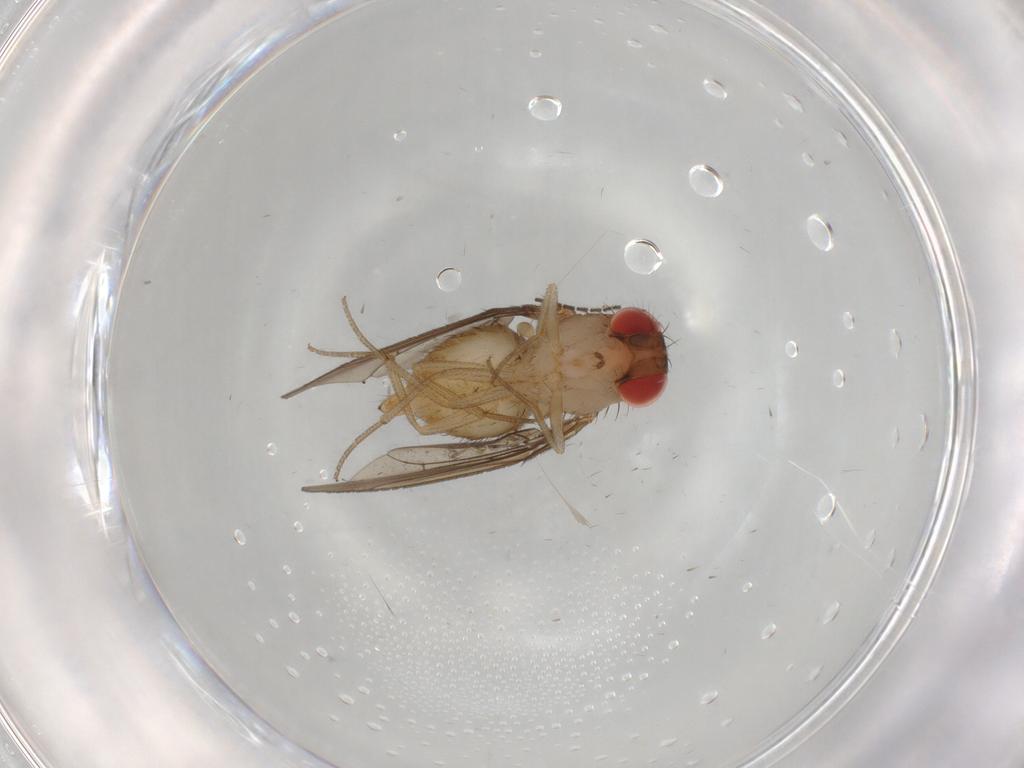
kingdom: Animalia
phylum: Arthropoda
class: Insecta
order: Diptera
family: Drosophilidae
